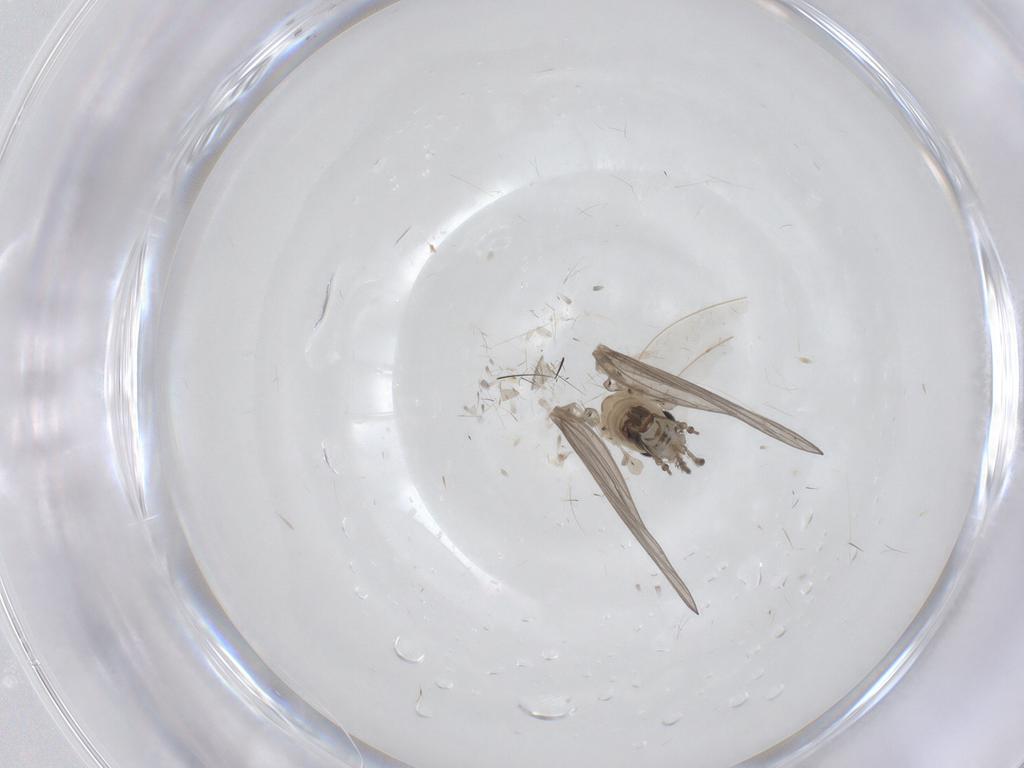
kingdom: Animalia
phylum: Arthropoda
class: Insecta
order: Diptera
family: Psychodidae
